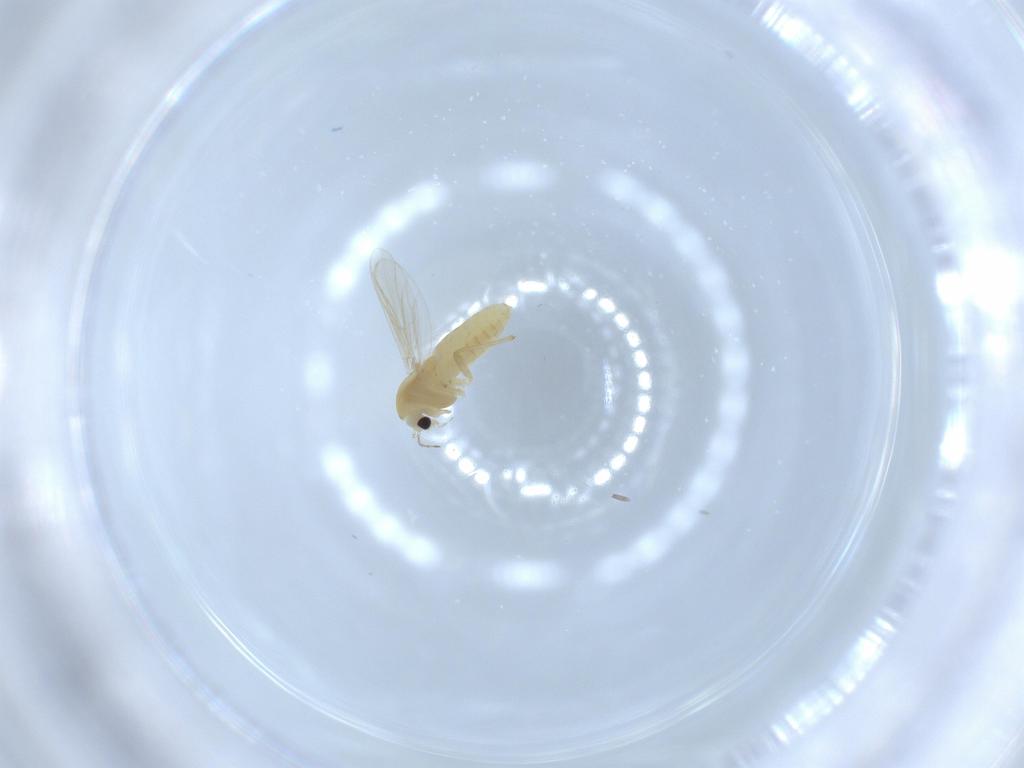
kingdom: Animalia
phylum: Arthropoda
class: Insecta
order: Diptera
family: Chironomidae
